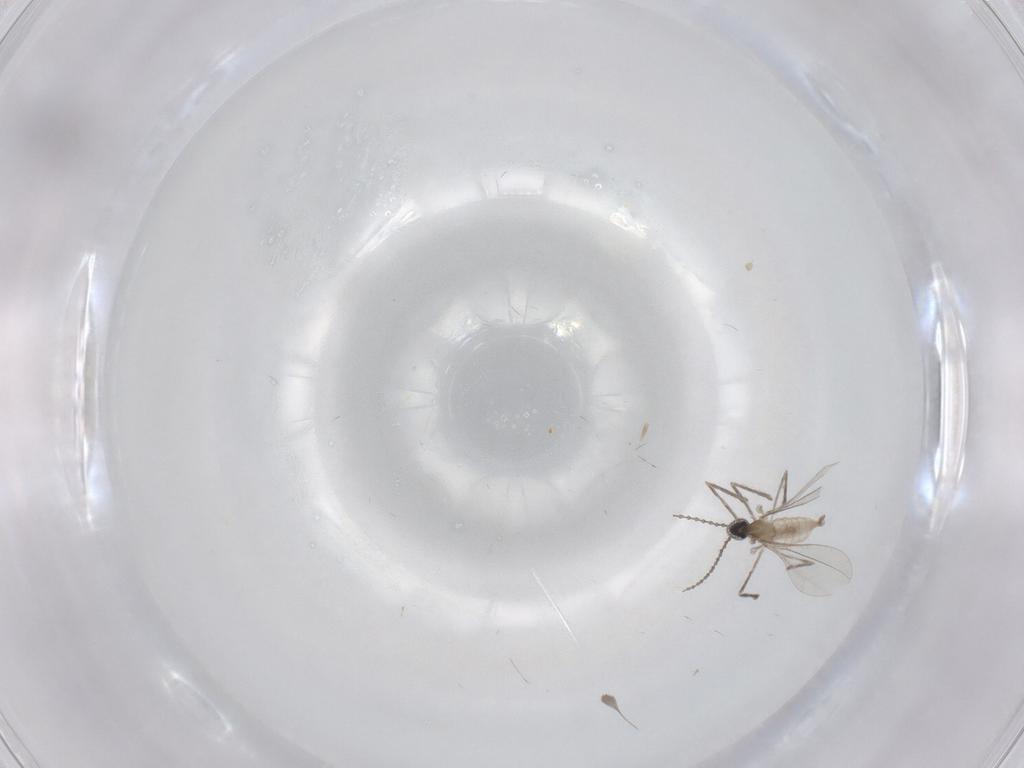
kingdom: Animalia
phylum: Arthropoda
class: Insecta
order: Diptera
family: Cecidomyiidae
